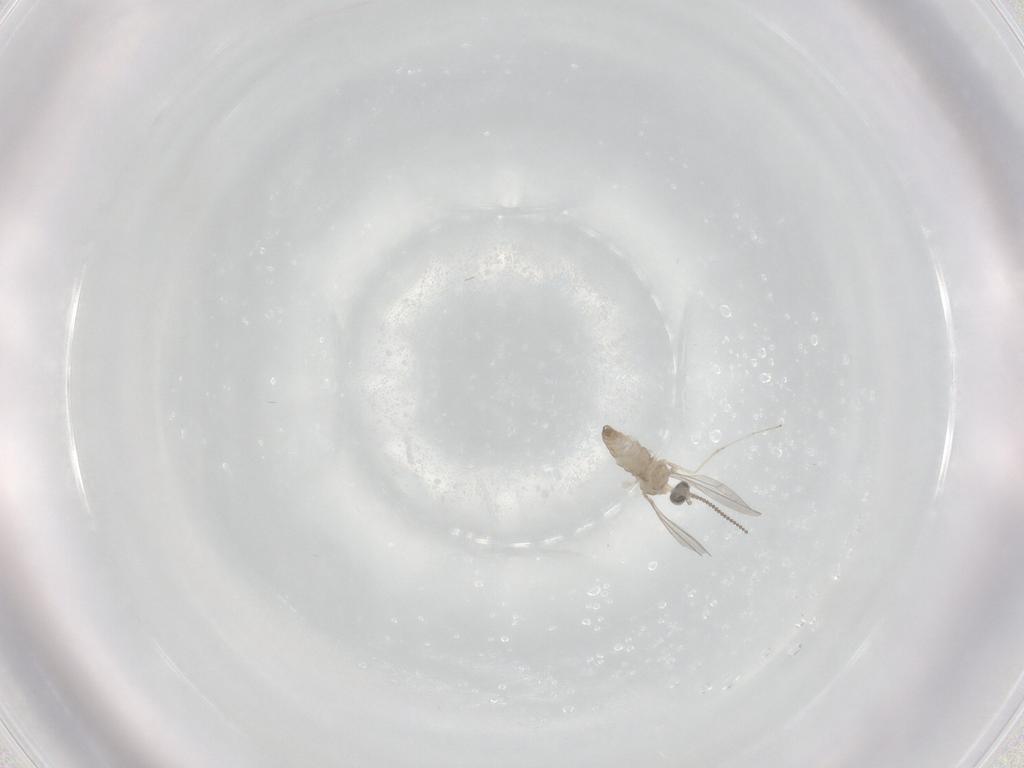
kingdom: Animalia
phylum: Arthropoda
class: Insecta
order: Diptera
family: Cecidomyiidae
